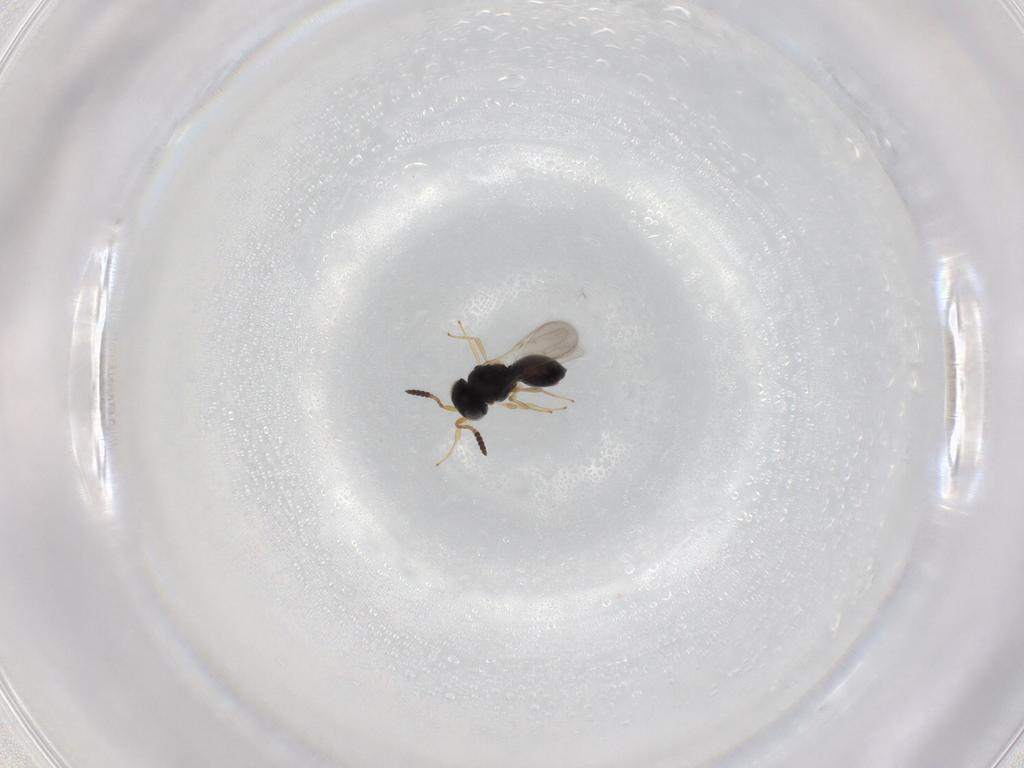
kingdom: Animalia
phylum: Arthropoda
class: Insecta
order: Hymenoptera
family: Scelionidae
